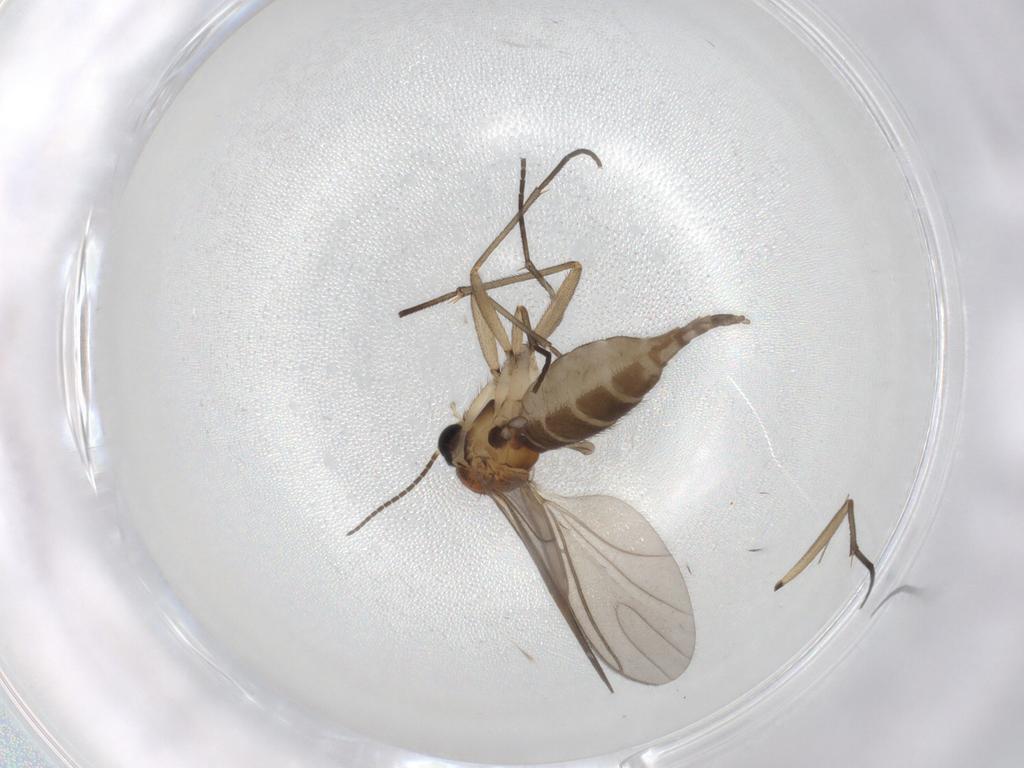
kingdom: Animalia
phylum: Arthropoda
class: Insecta
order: Diptera
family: Sciaridae
